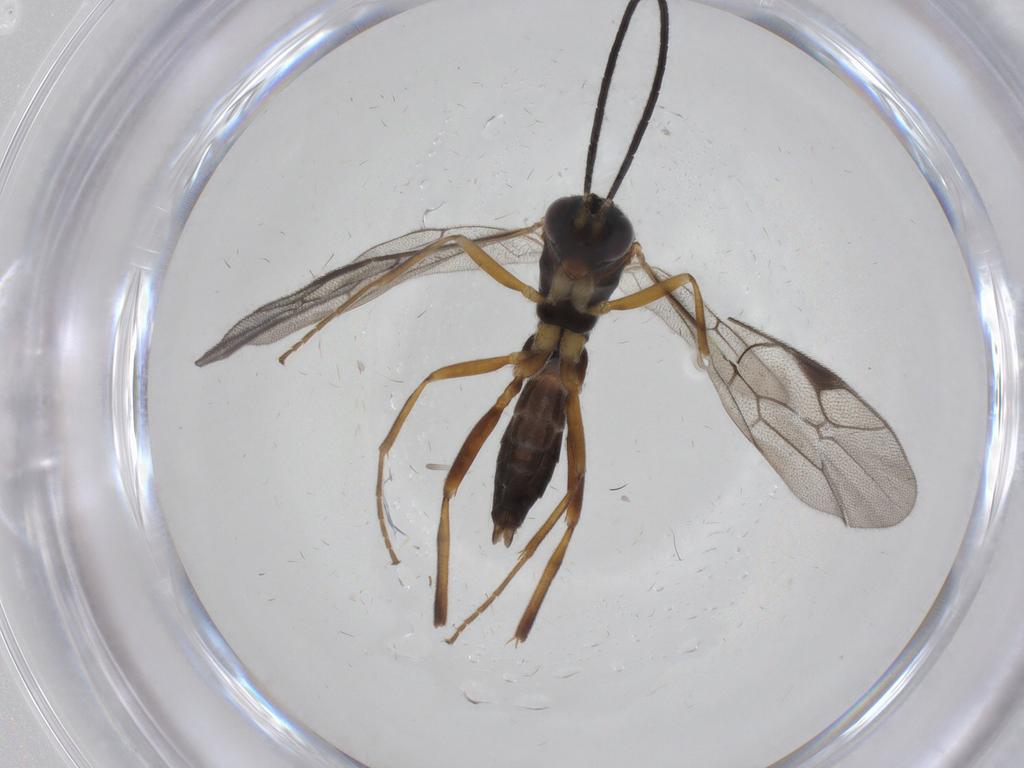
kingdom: Animalia
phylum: Arthropoda
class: Insecta
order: Hymenoptera
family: Ichneumonidae
